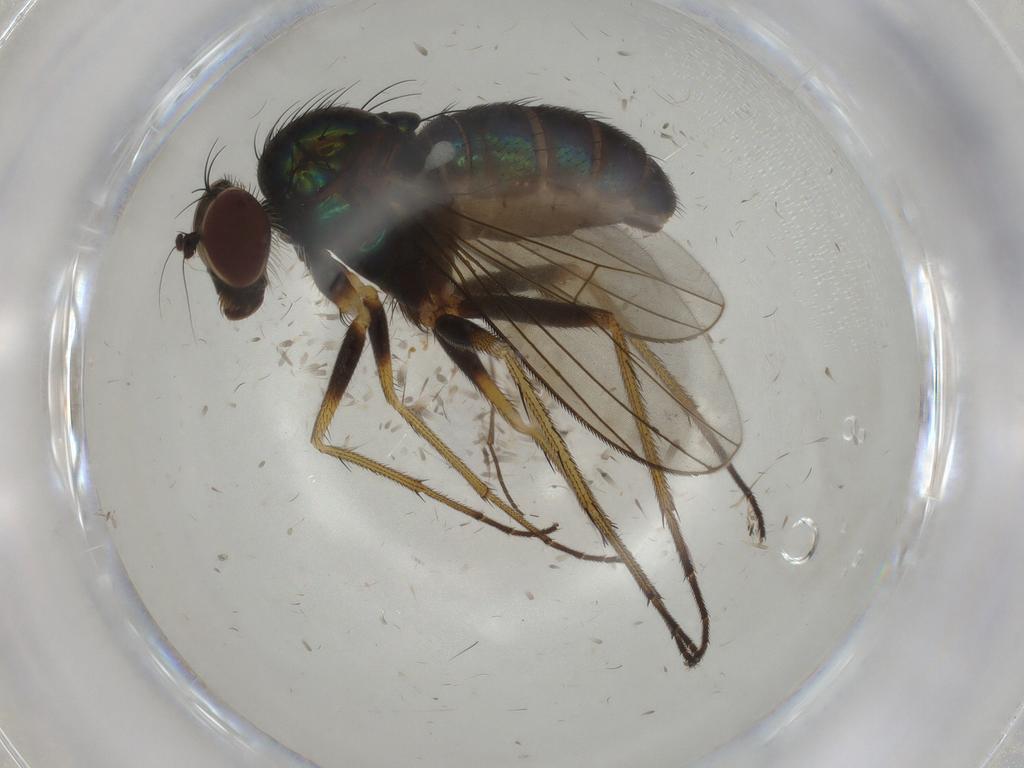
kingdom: Animalia
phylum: Arthropoda
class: Insecta
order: Diptera
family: Dolichopodidae
